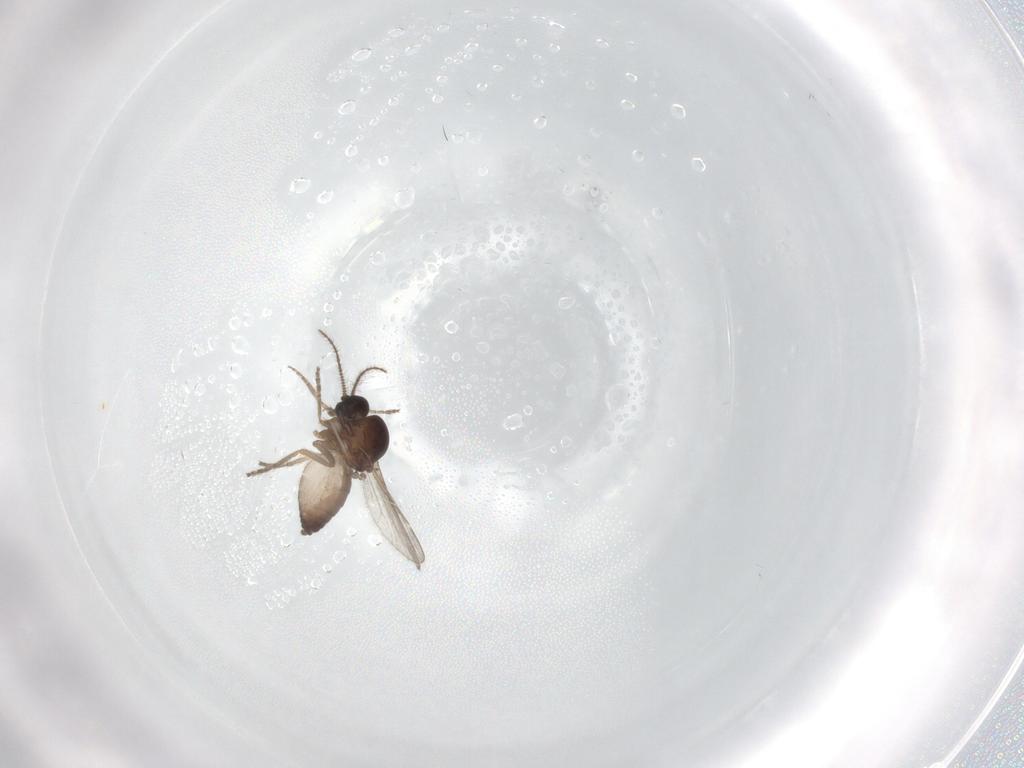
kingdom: Animalia
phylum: Arthropoda
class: Insecta
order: Diptera
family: Ceratopogonidae
